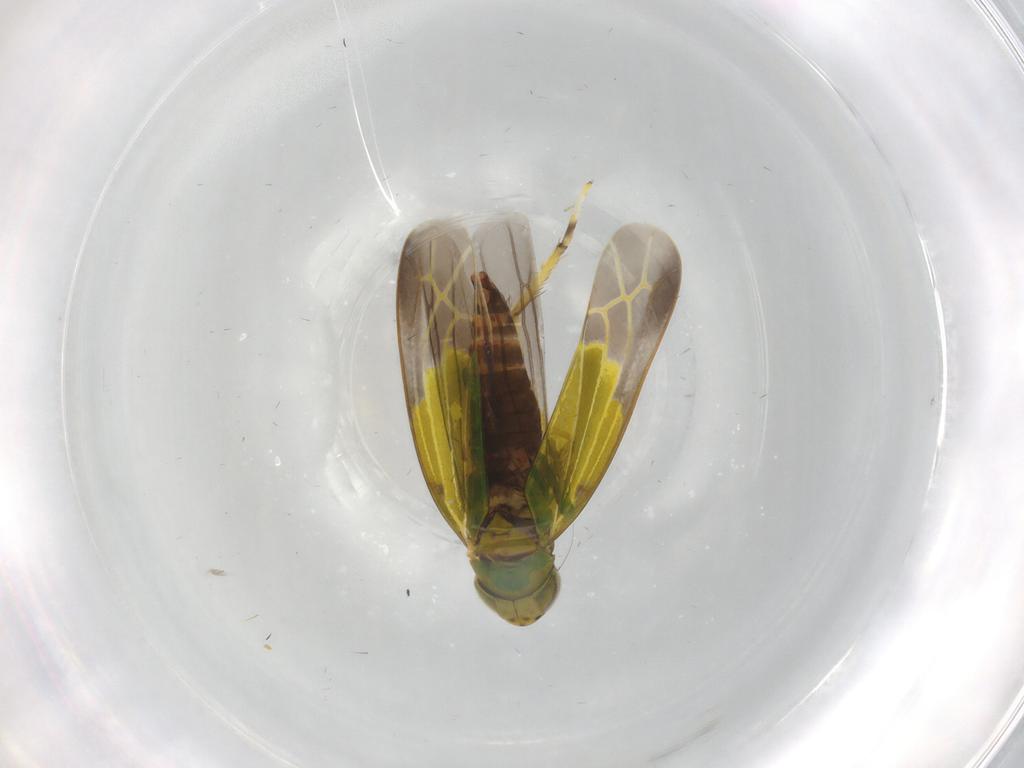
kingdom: Animalia
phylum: Arthropoda
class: Insecta
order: Hemiptera
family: Cicadellidae
